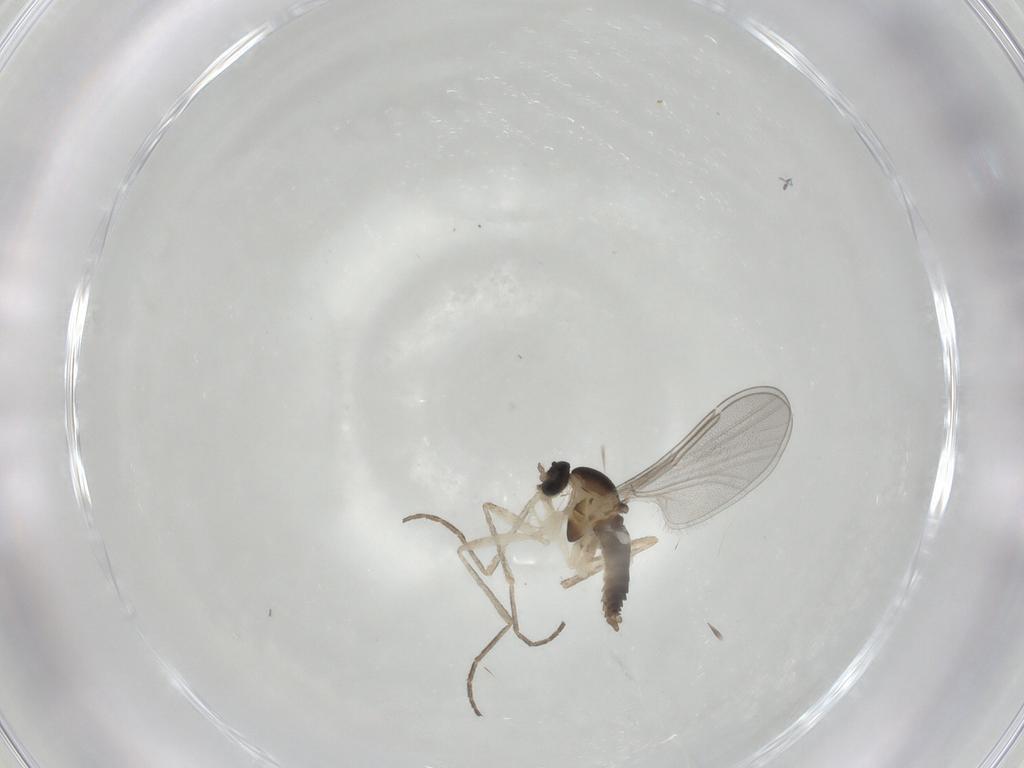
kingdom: Animalia
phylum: Arthropoda
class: Insecta
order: Diptera
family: Cecidomyiidae
